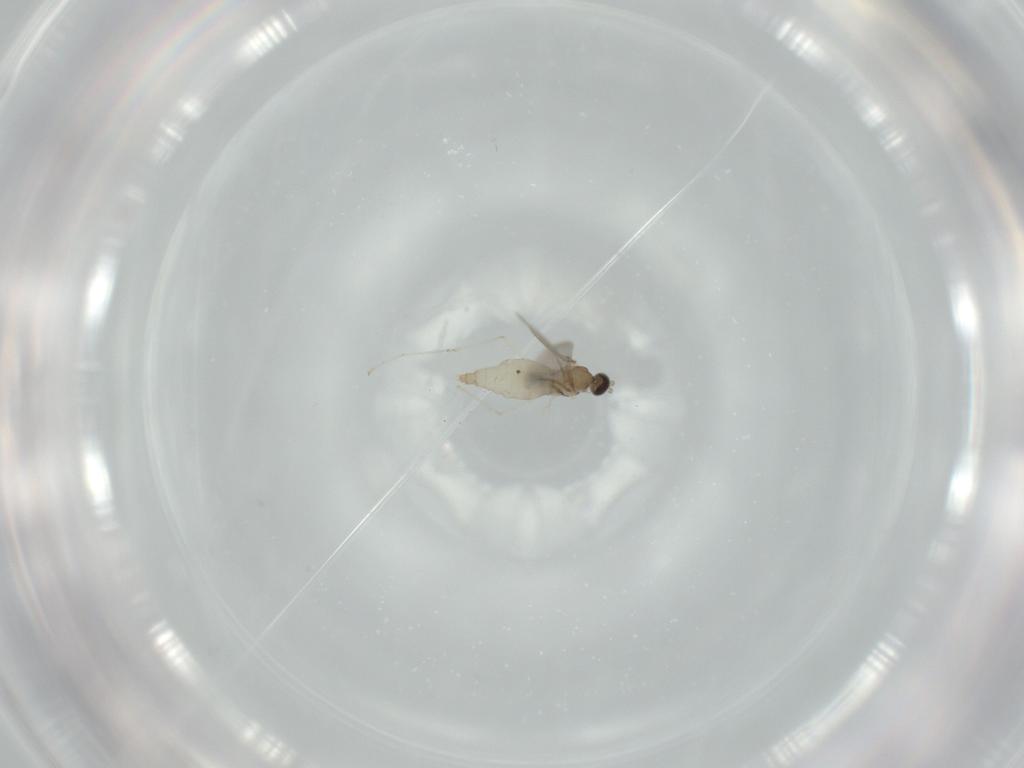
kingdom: Animalia
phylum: Arthropoda
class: Insecta
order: Diptera
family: Cecidomyiidae
